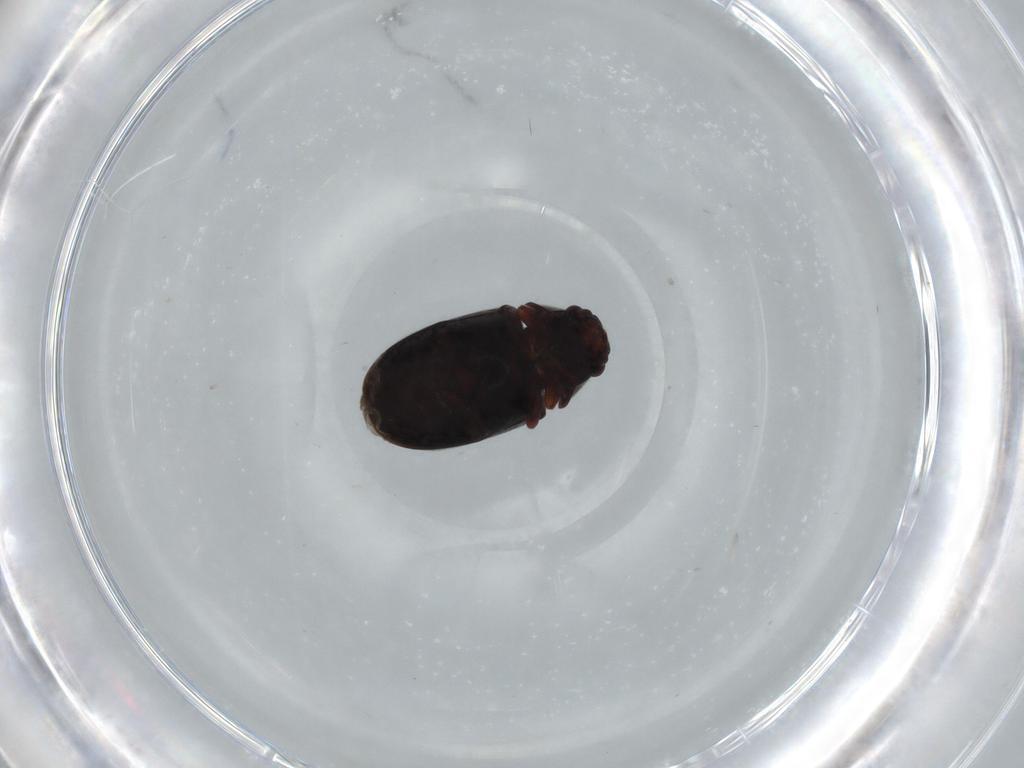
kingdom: Animalia
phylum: Arthropoda
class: Insecta
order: Coleoptera
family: Ptinidae
